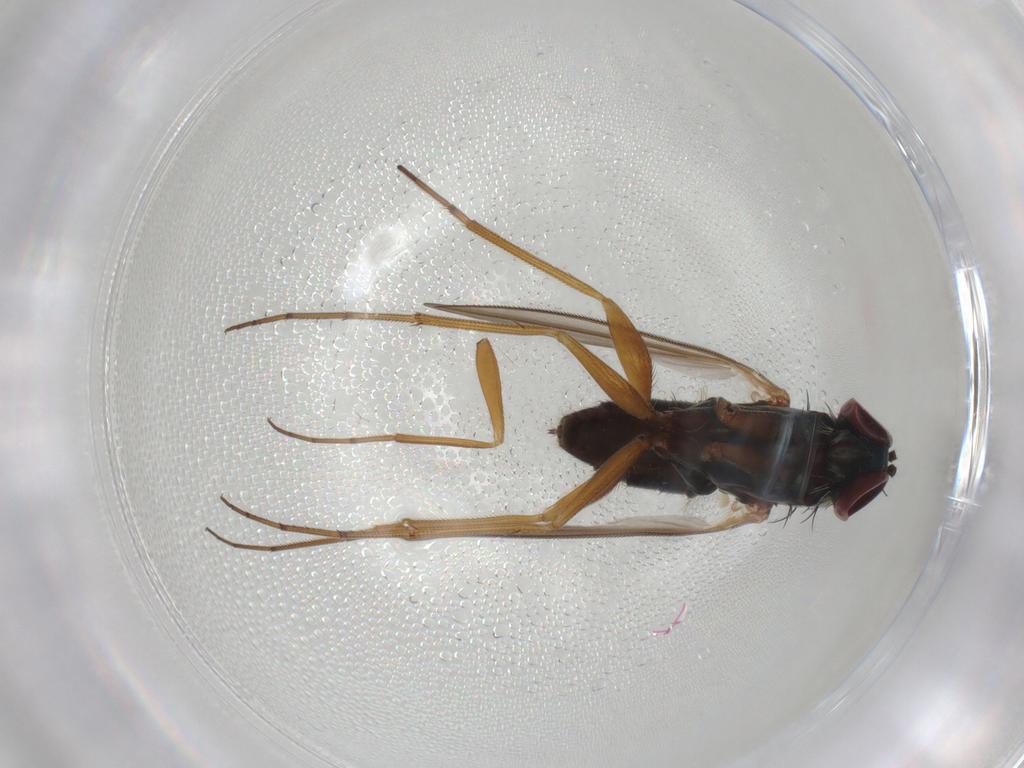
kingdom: Animalia
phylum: Arthropoda
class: Insecta
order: Diptera
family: Dolichopodidae
